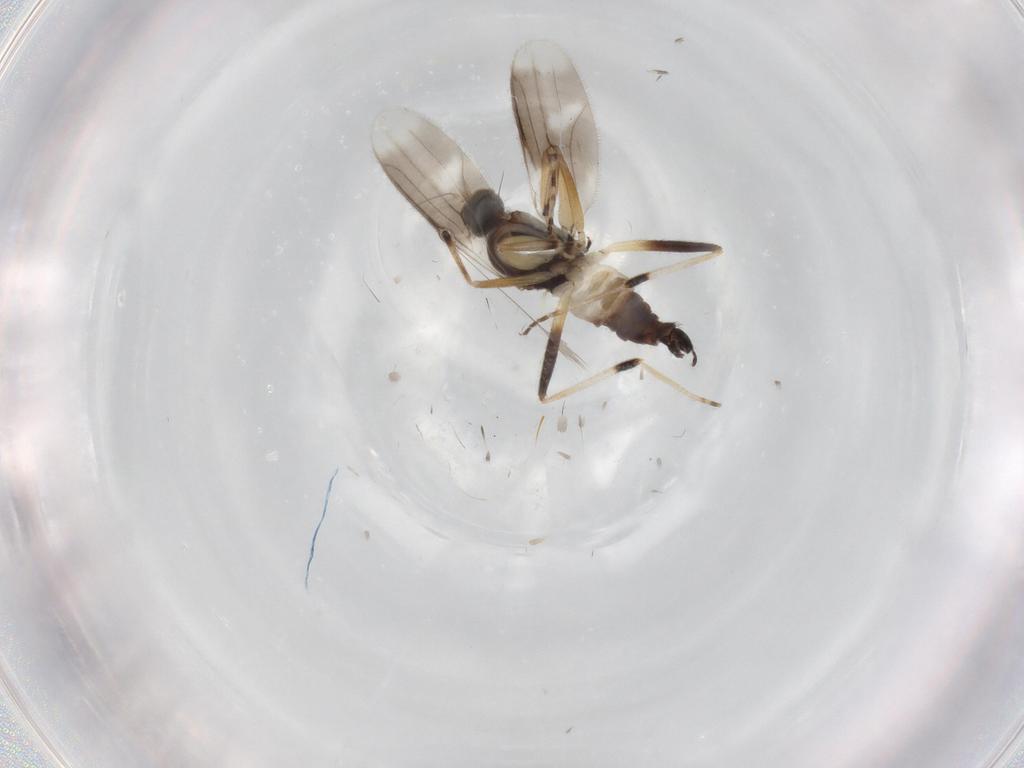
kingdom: Animalia
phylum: Arthropoda
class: Insecta
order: Diptera
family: Hybotidae
